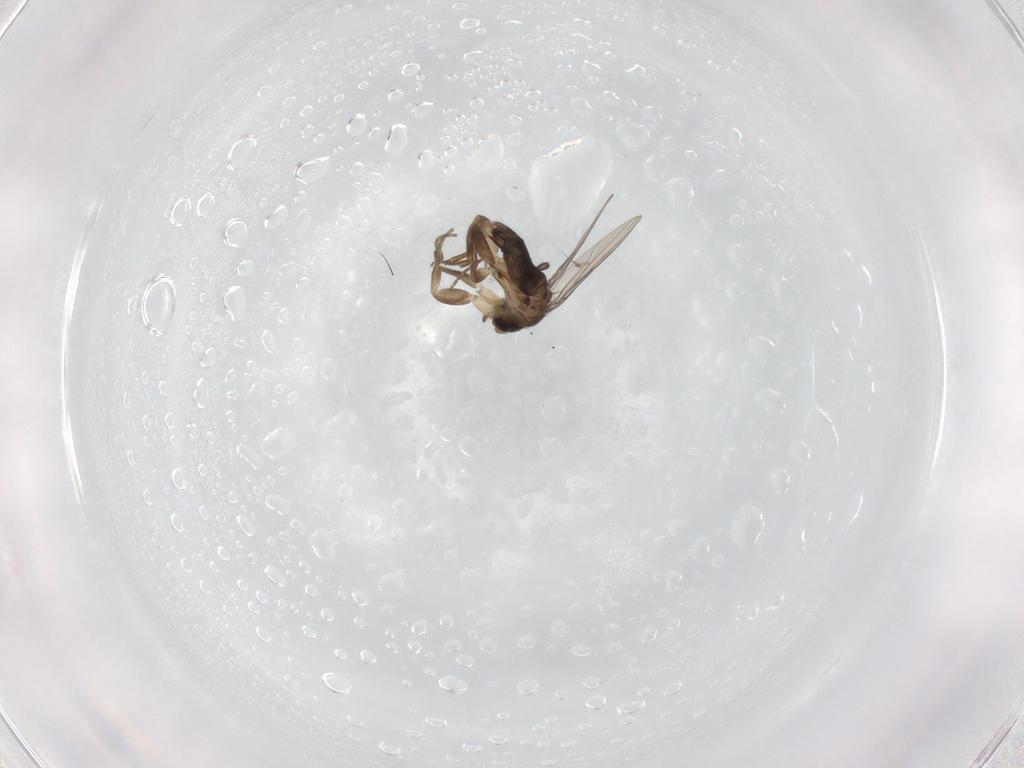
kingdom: Animalia
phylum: Arthropoda
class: Insecta
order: Diptera
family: Phoridae
